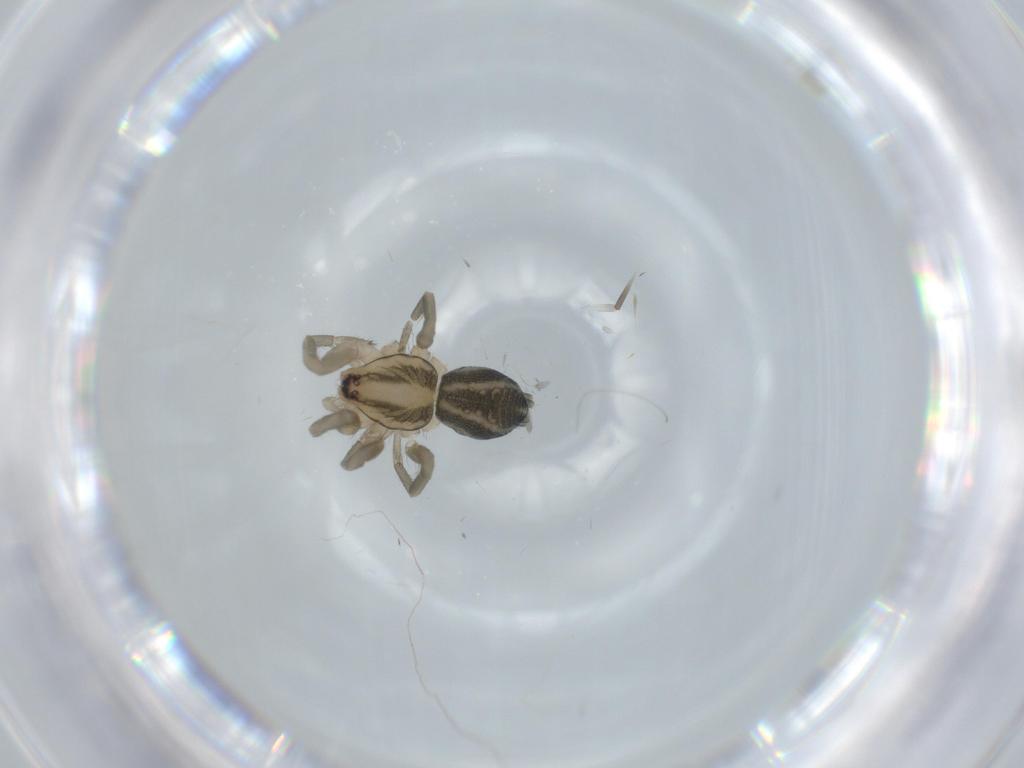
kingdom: Animalia
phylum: Arthropoda
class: Arachnida
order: Araneae
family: Gnaphosidae
